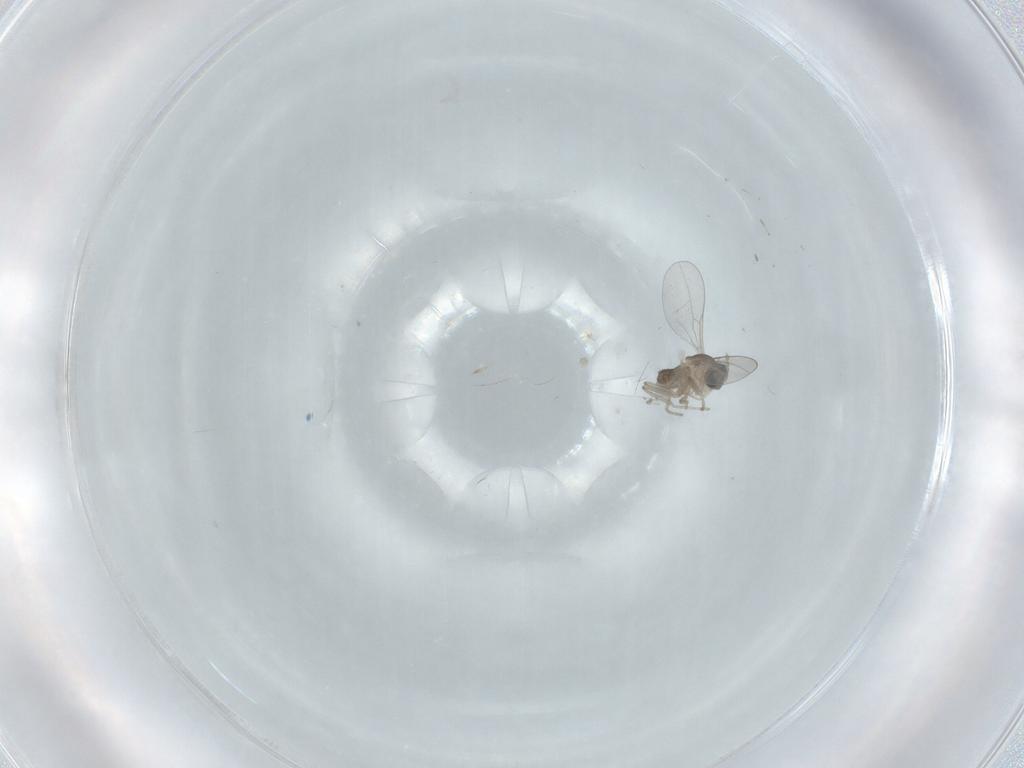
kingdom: Animalia
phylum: Arthropoda
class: Insecta
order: Diptera
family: Cecidomyiidae
